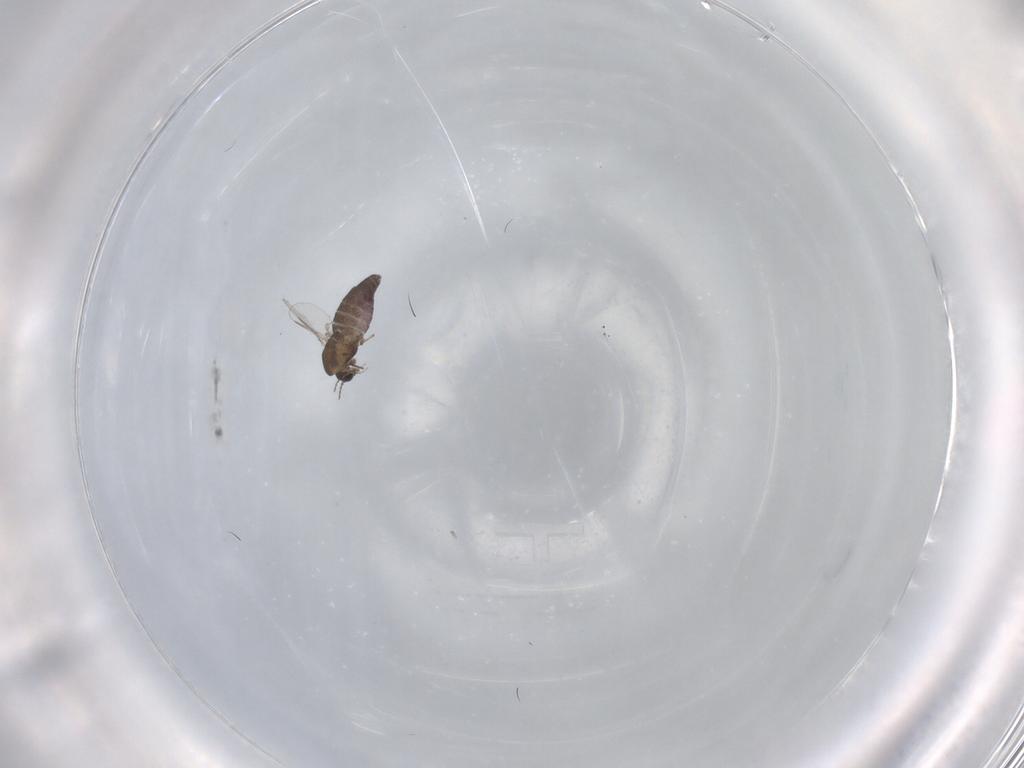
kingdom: Animalia
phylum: Arthropoda
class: Insecta
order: Diptera
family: Chironomidae
